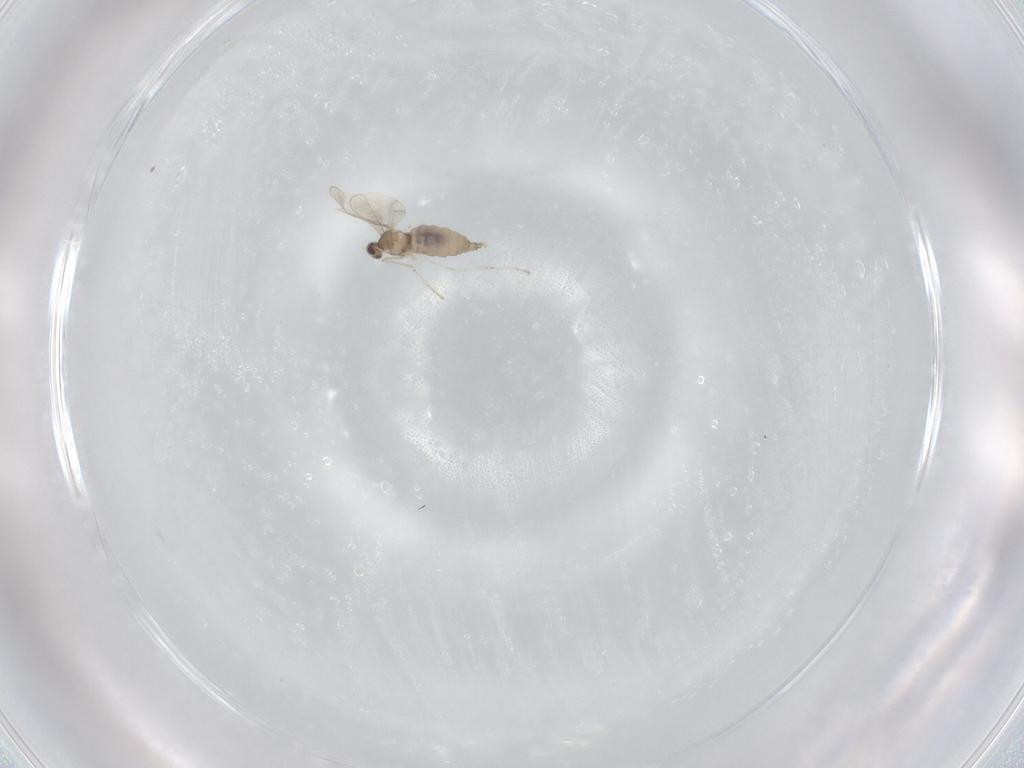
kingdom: Animalia
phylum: Arthropoda
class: Insecta
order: Diptera
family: Cecidomyiidae
